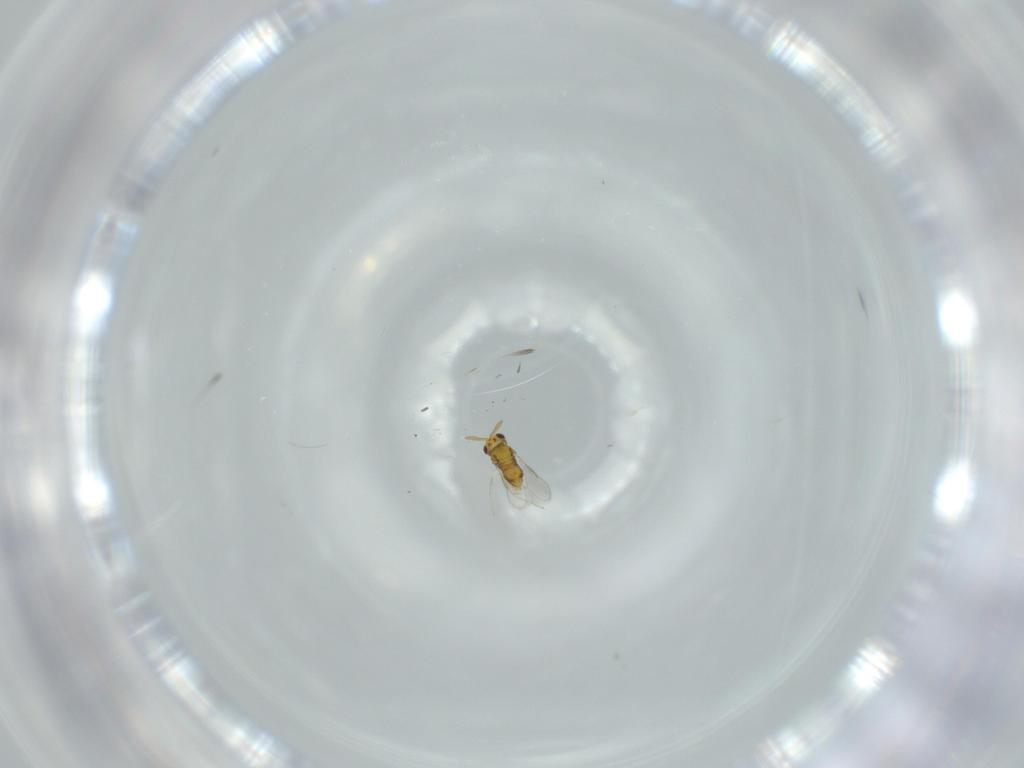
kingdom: Animalia
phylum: Arthropoda
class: Insecta
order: Hymenoptera
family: Aphelinidae
